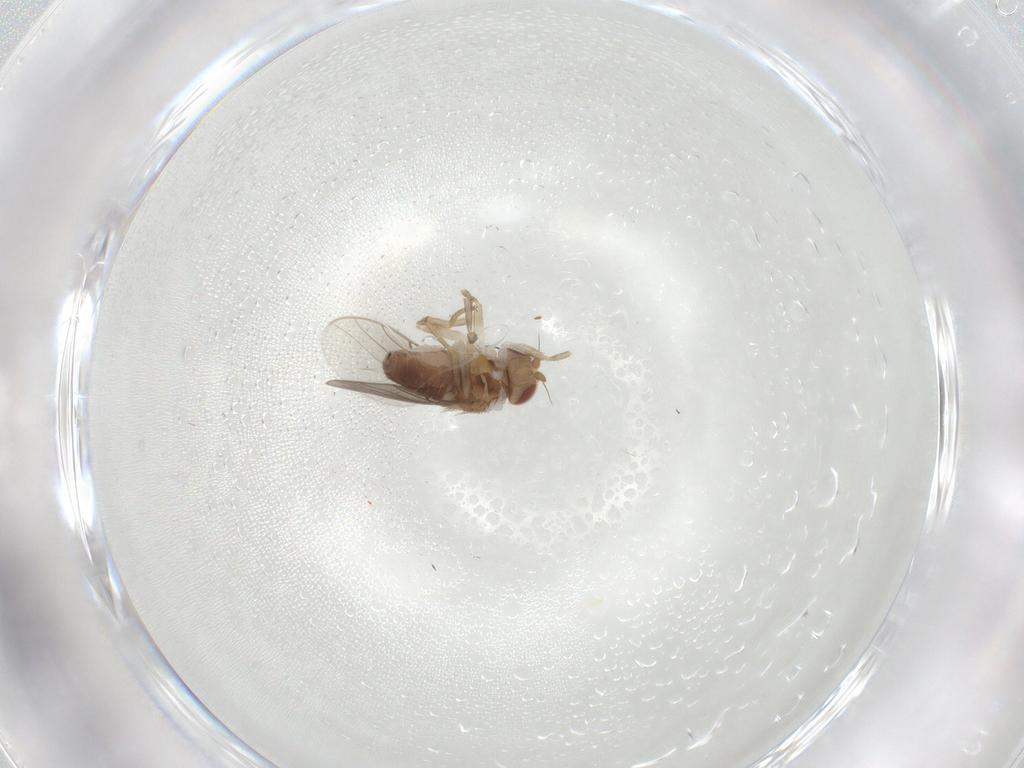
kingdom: Animalia
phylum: Arthropoda
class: Insecta
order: Diptera
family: Chloropidae
